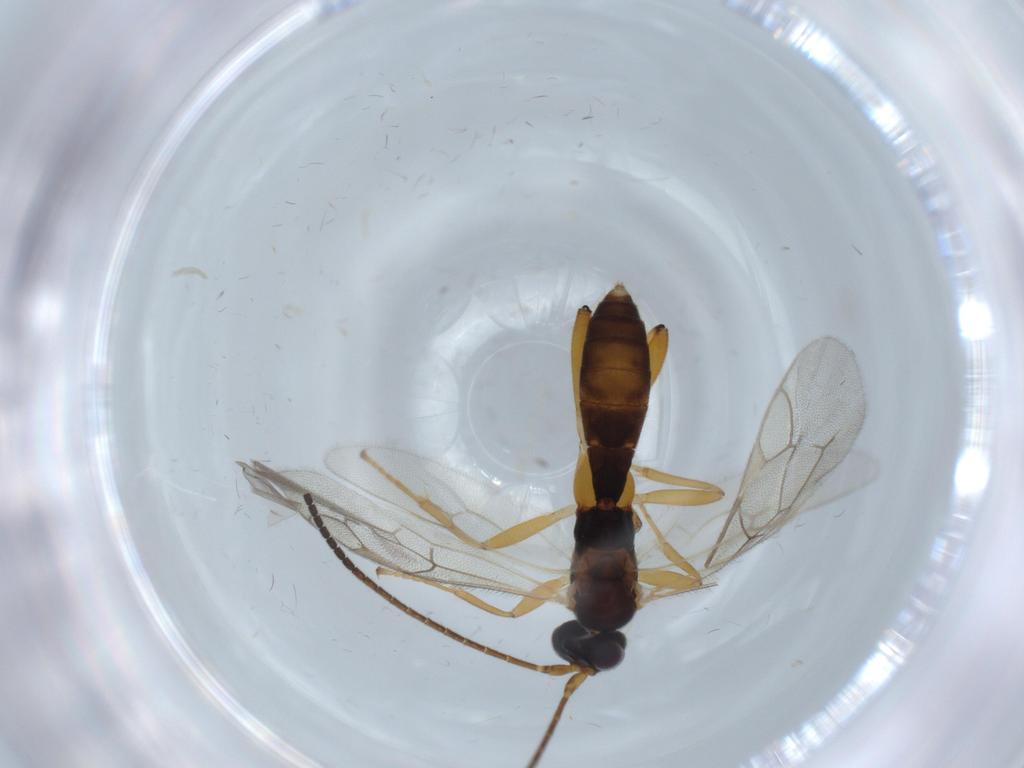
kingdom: Animalia
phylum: Arthropoda
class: Insecta
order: Hymenoptera
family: Ichneumonidae
